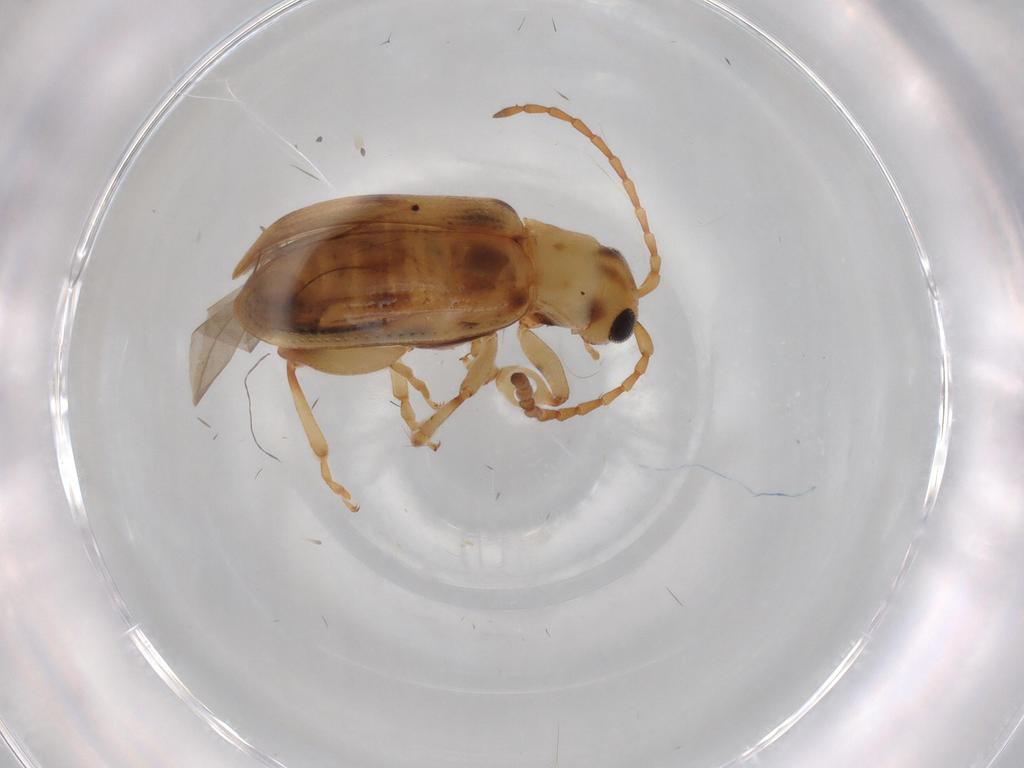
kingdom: Animalia
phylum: Arthropoda
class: Insecta
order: Coleoptera
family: Chrysomelidae
